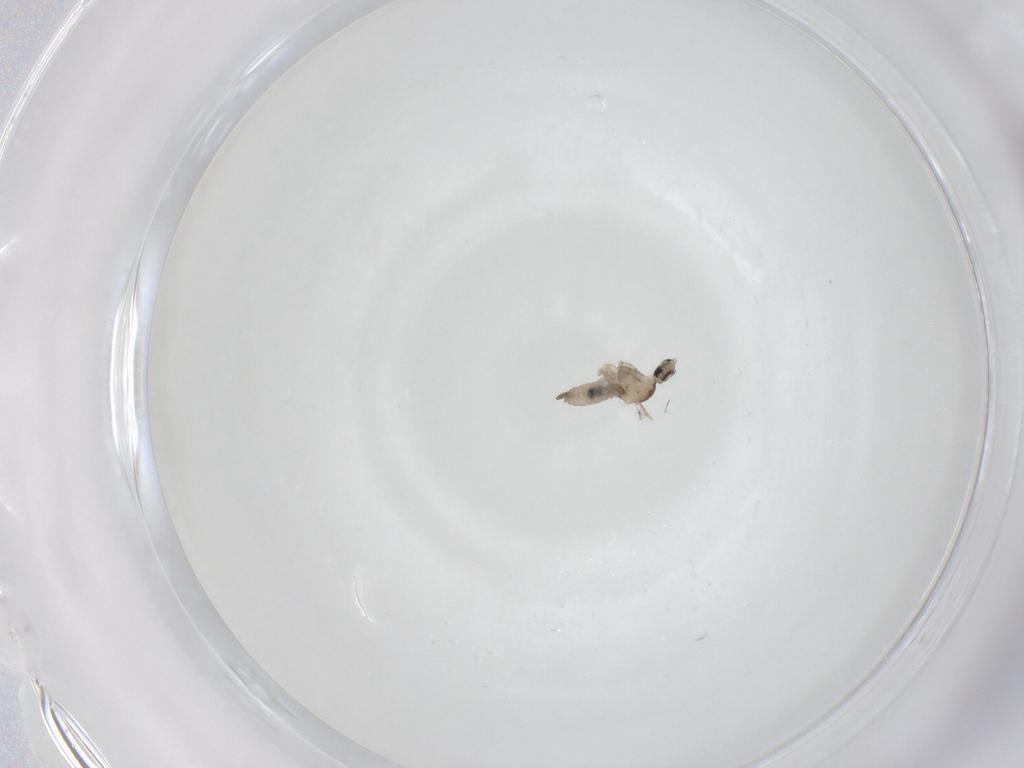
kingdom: Animalia
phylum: Arthropoda
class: Insecta
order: Diptera
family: Cecidomyiidae
